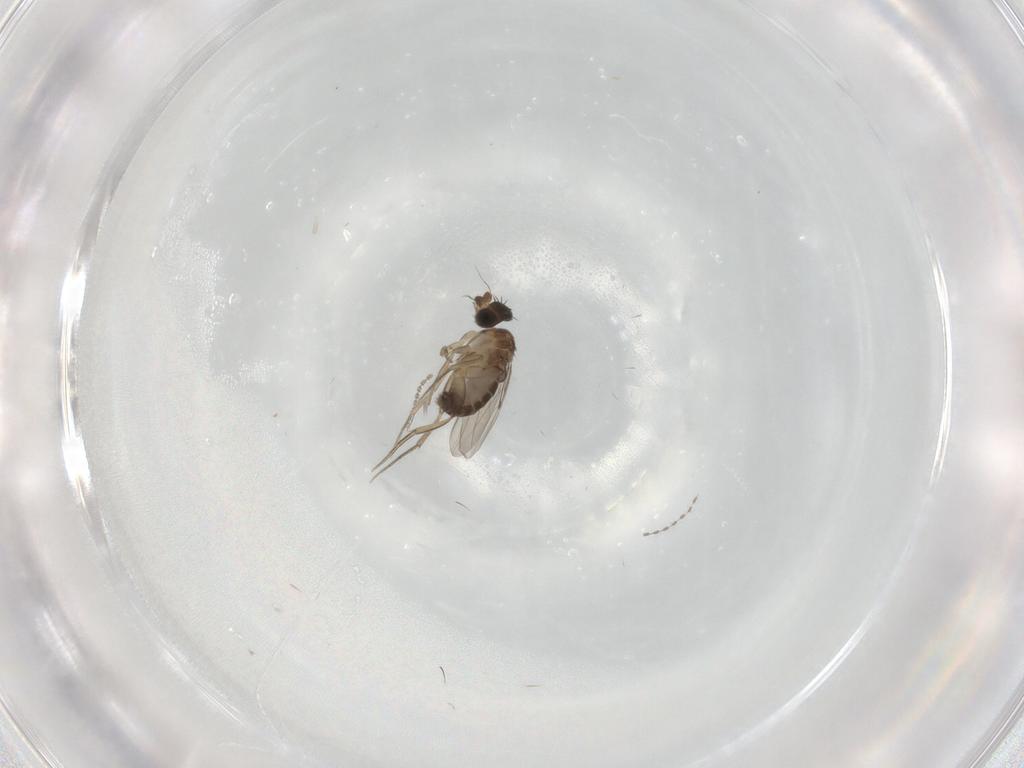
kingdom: Animalia
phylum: Arthropoda
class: Insecta
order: Diptera
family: Phoridae
